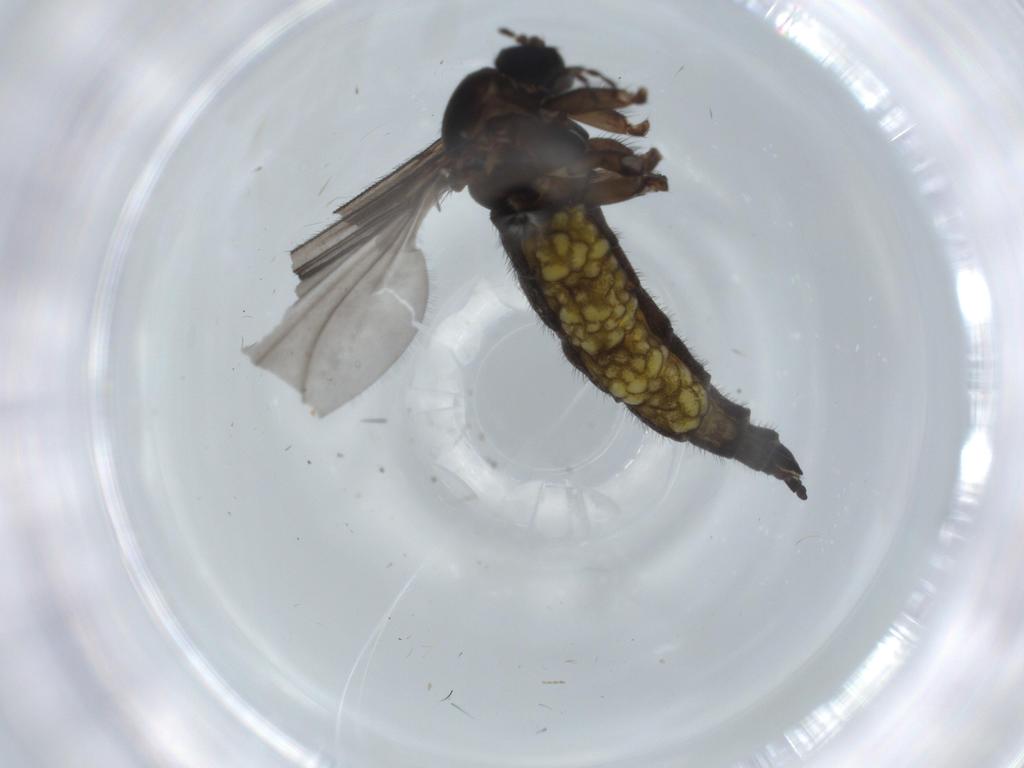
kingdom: Animalia
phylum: Arthropoda
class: Insecta
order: Diptera
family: Sciaridae
